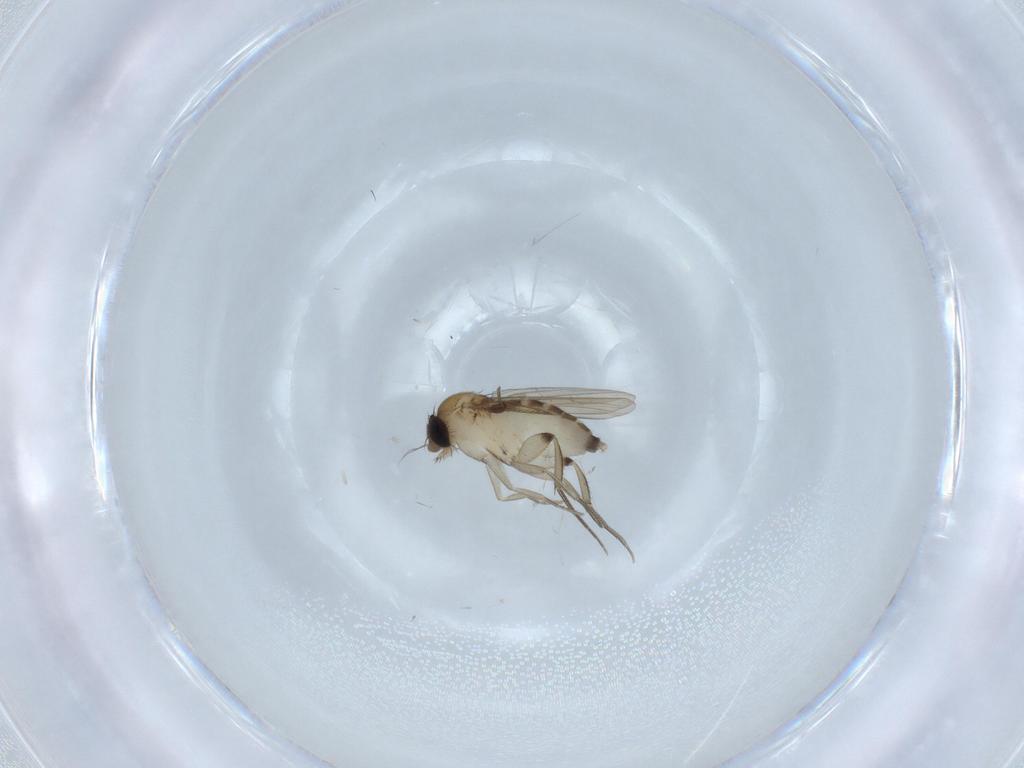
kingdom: Animalia
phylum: Arthropoda
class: Insecta
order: Diptera
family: Phoridae
